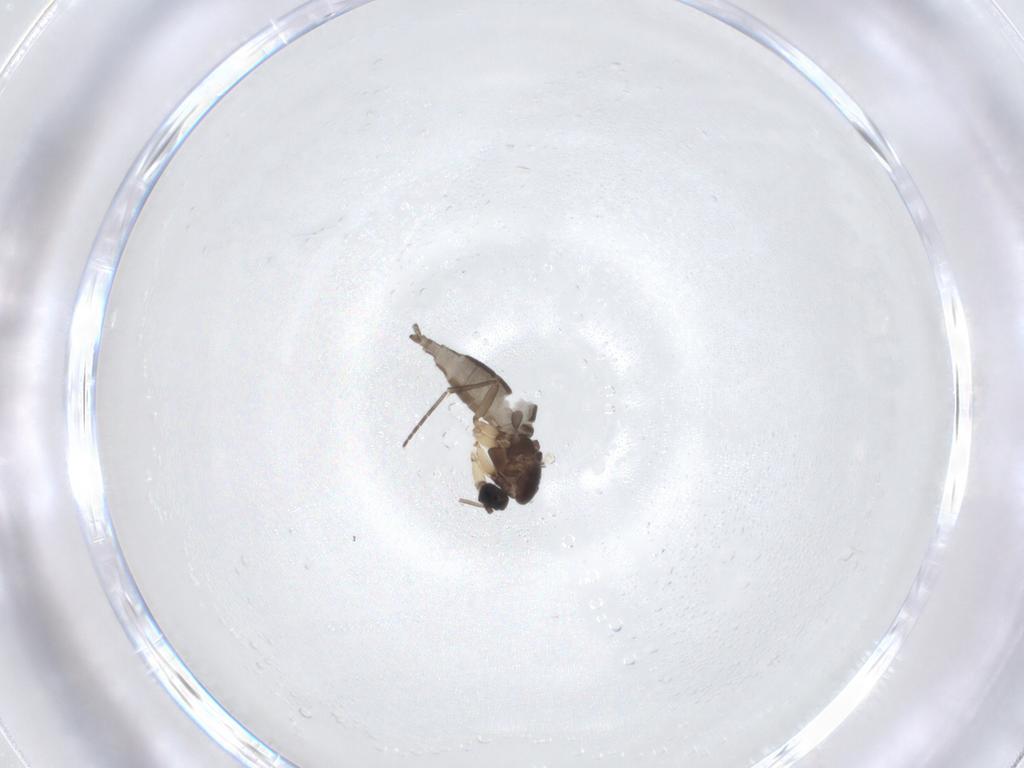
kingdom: Animalia
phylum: Arthropoda
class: Insecta
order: Diptera
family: Sciaridae
